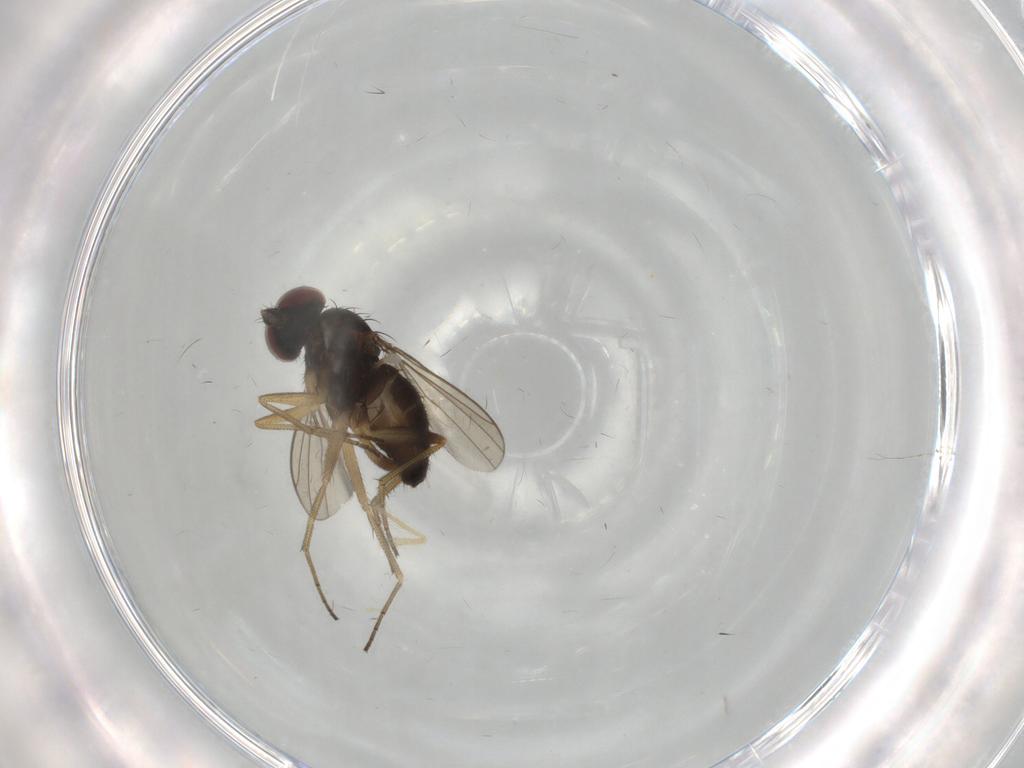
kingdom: Animalia
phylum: Arthropoda
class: Insecta
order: Diptera
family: Dolichopodidae
